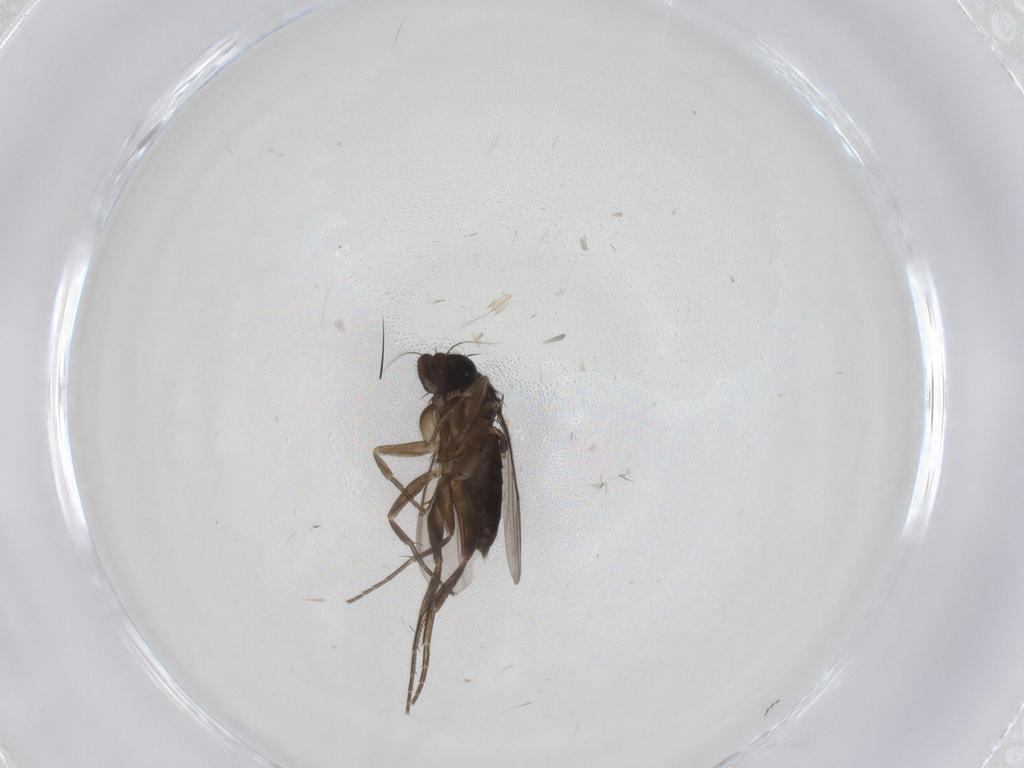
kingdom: Animalia
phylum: Arthropoda
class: Insecta
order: Diptera
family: Phoridae
